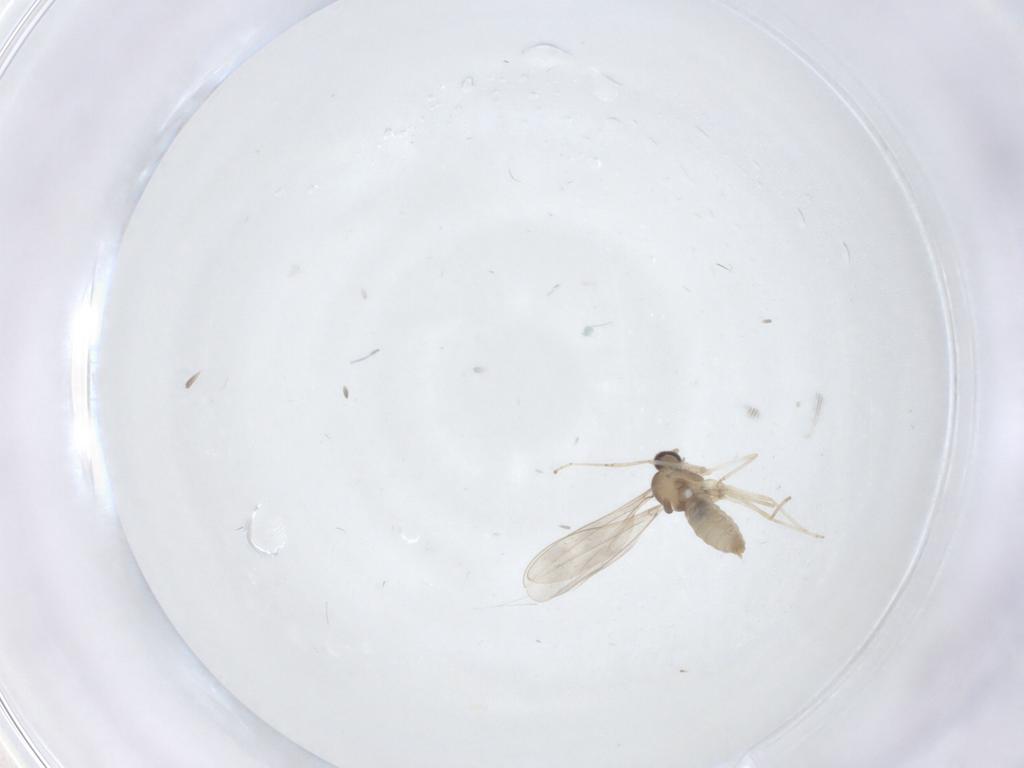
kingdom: Animalia
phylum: Arthropoda
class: Insecta
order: Diptera
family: Cecidomyiidae
